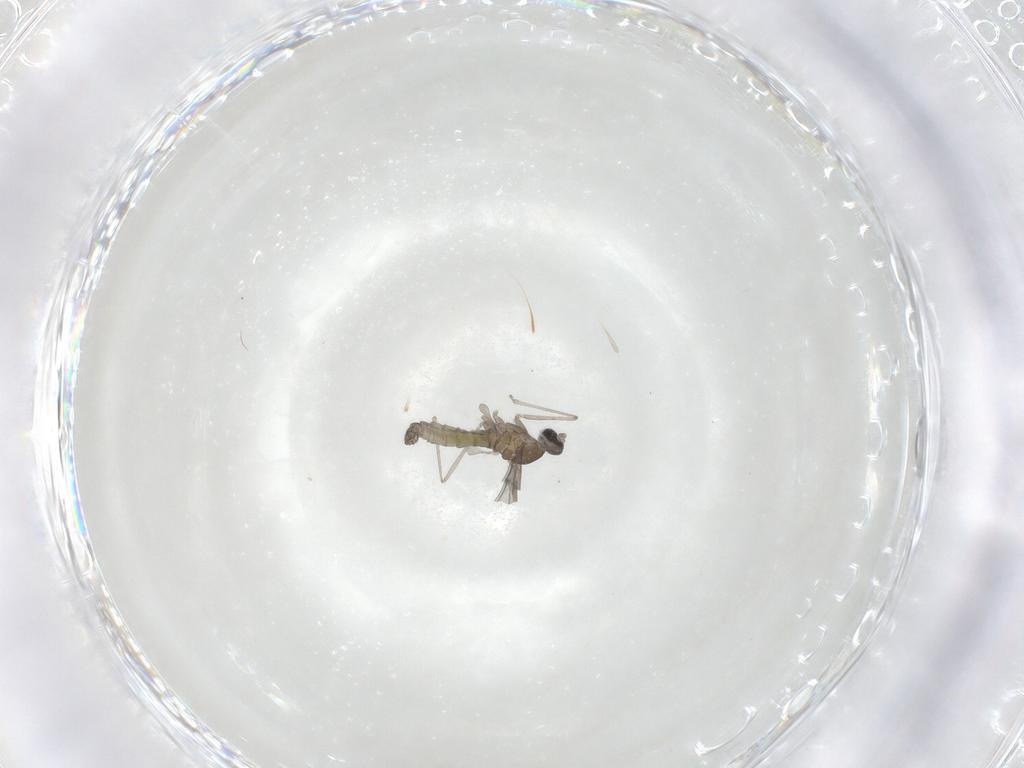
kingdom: Animalia
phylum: Arthropoda
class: Insecta
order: Diptera
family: Cecidomyiidae
